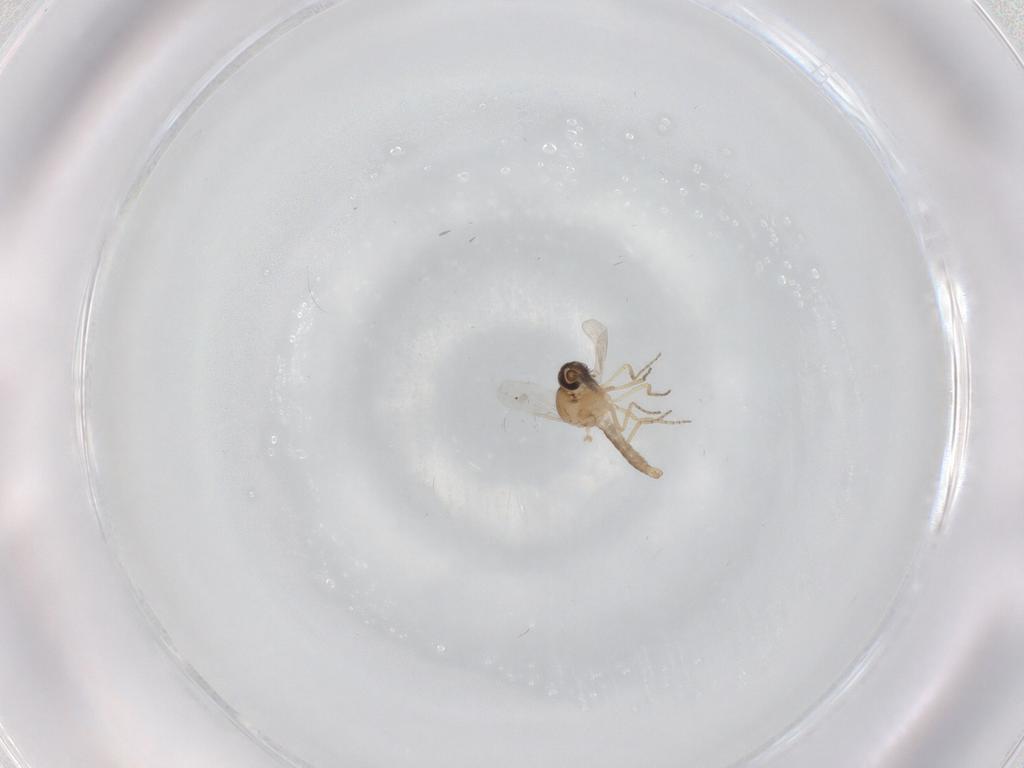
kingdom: Animalia
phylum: Arthropoda
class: Insecta
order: Diptera
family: Ceratopogonidae
